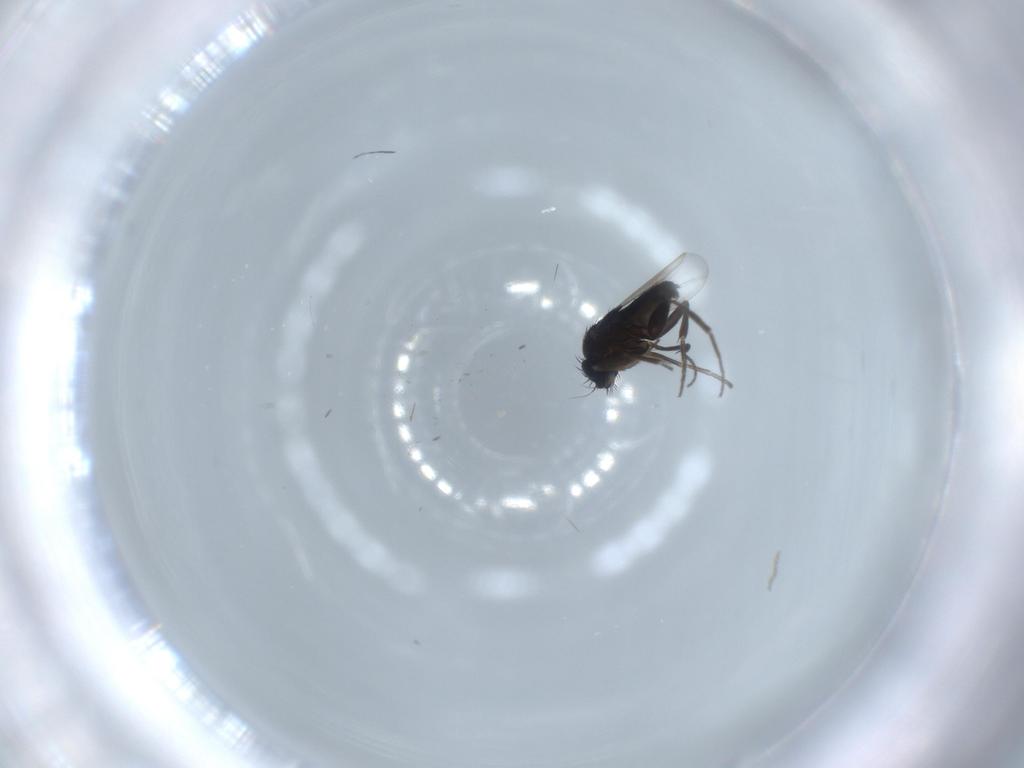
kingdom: Animalia
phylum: Arthropoda
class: Insecta
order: Diptera
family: Phoridae
